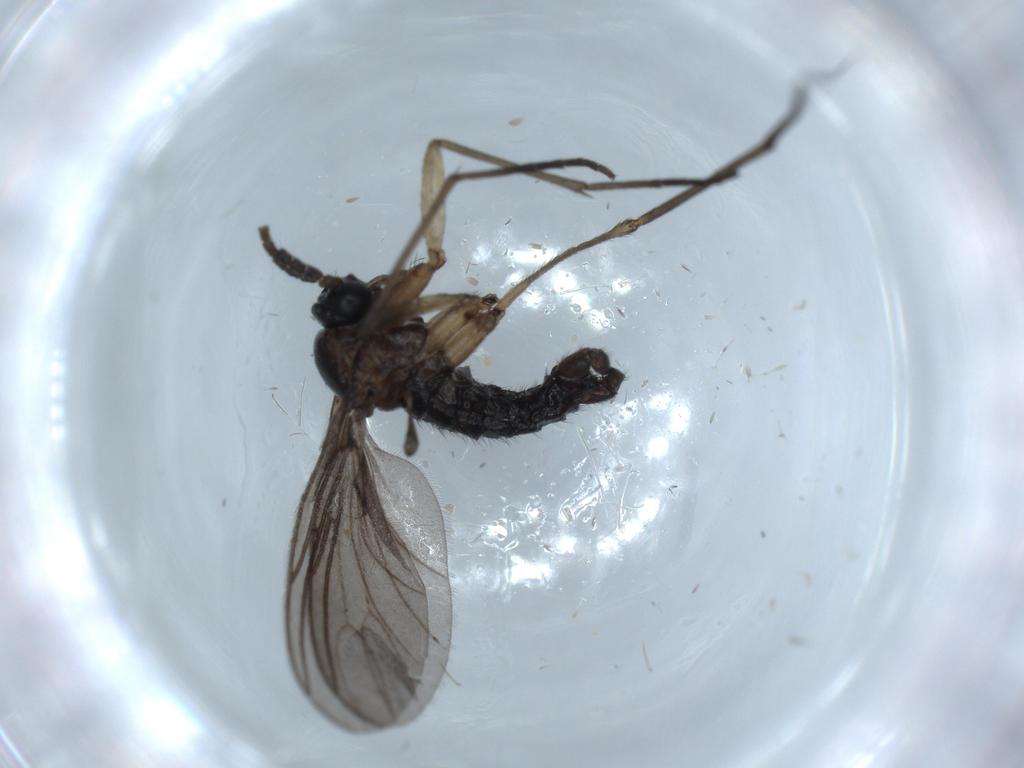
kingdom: Animalia
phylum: Arthropoda
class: Insecta
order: Diptera
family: Sciaridae
